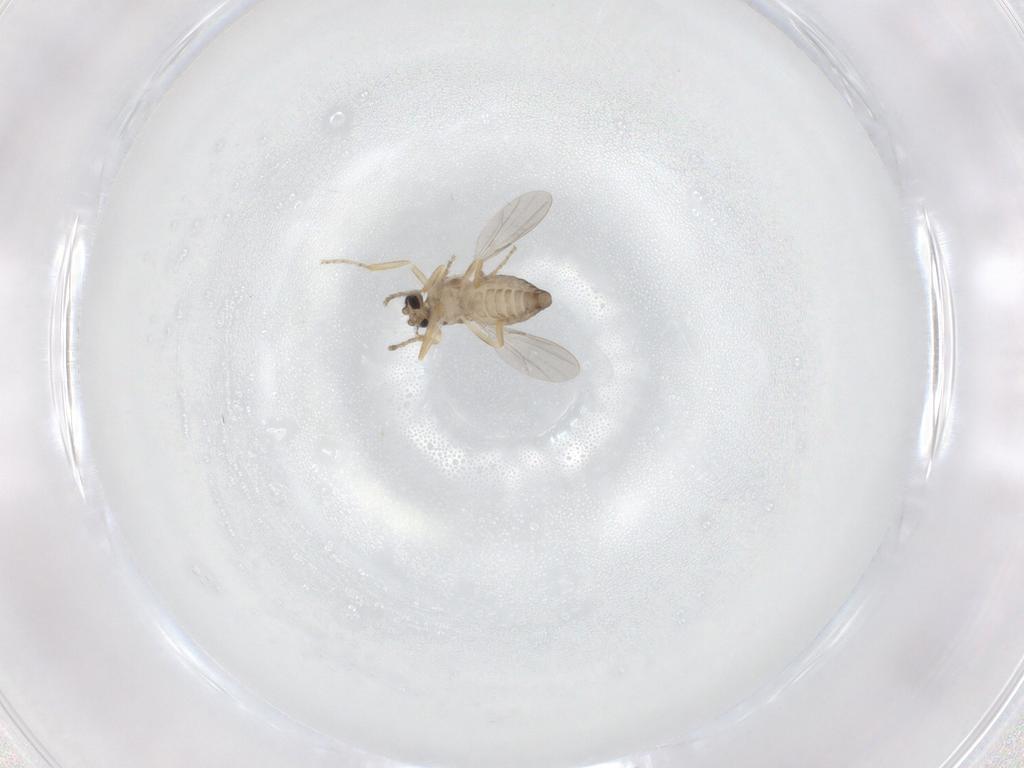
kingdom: Animalia
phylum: Arthropoda
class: Insecta
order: Diptera
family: Ceratopogonidae
